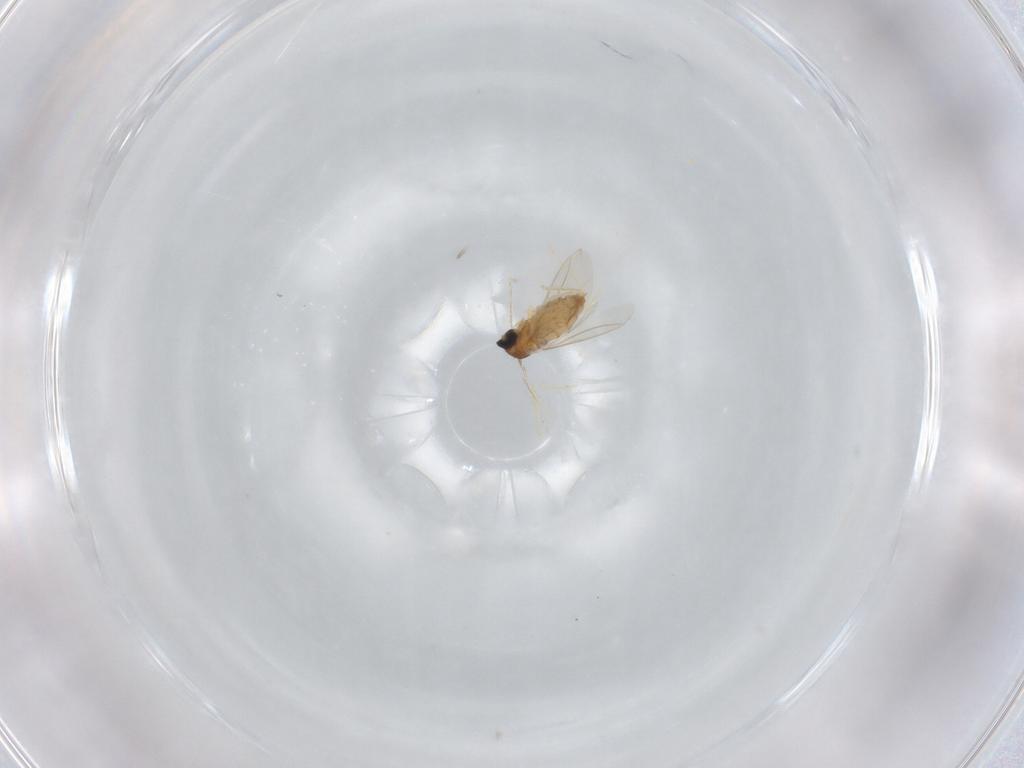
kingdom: Animalia
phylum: Arthropoda
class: Insecta
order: Diptera
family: Cecidomyiidae
